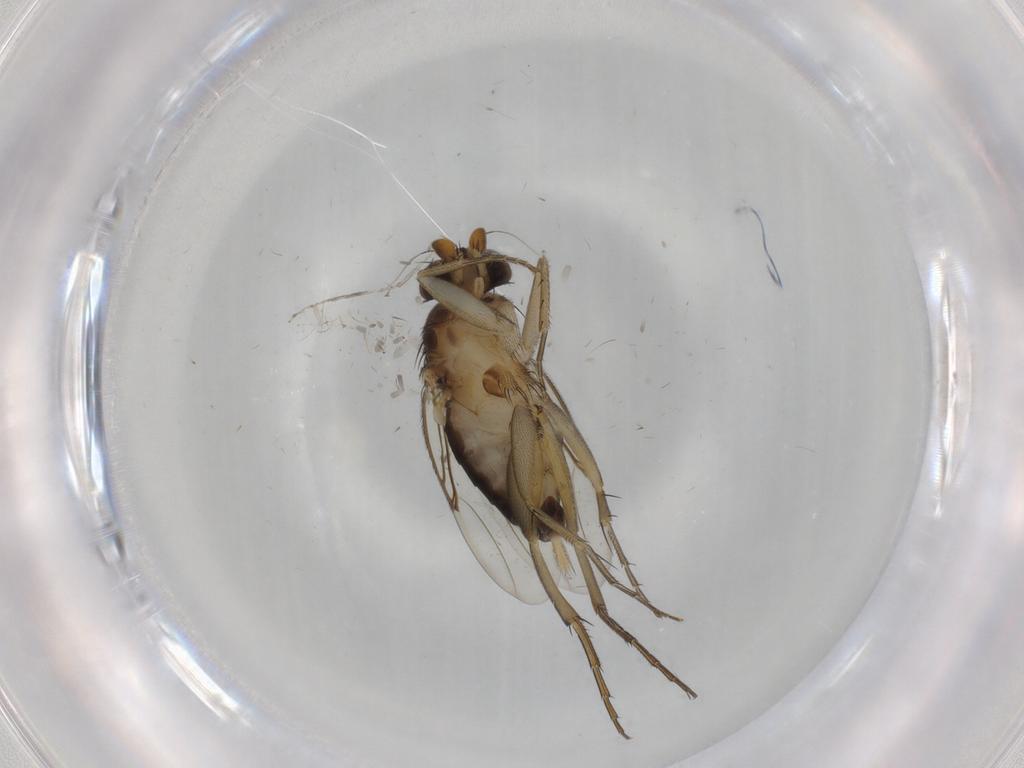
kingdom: Animalia
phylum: Arthropoda
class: Insecta
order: Diptera
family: Phoridae
